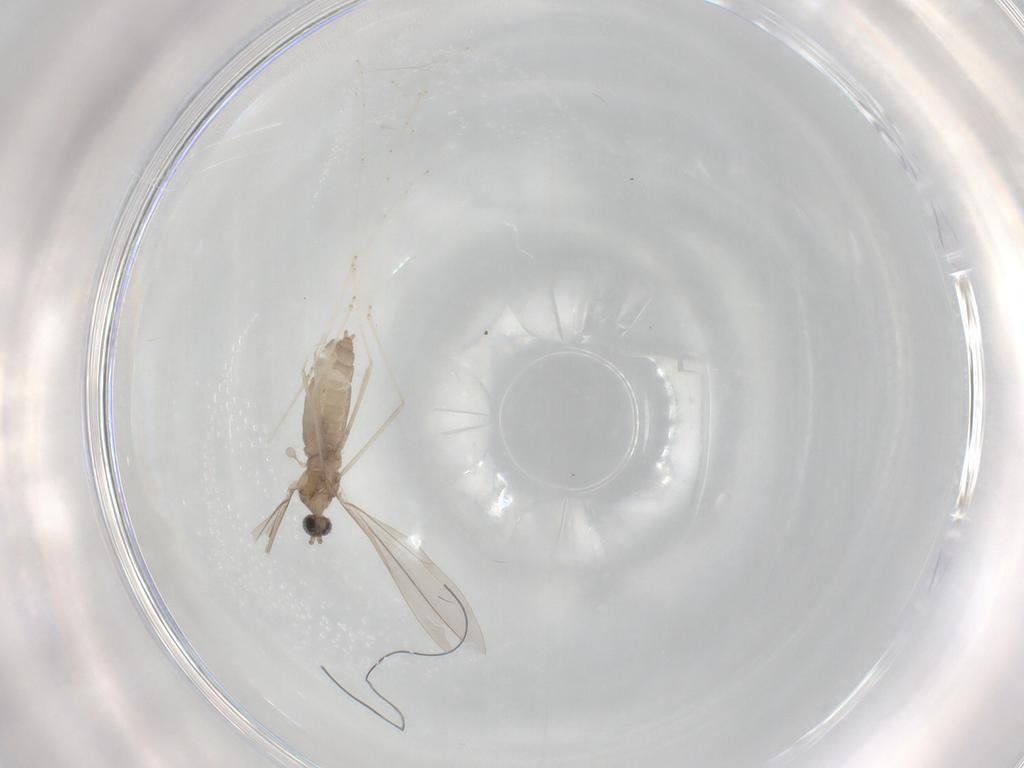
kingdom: Animalia
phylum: Arthropoda
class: Insecta
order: Diptera
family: Cecidomyiidae
